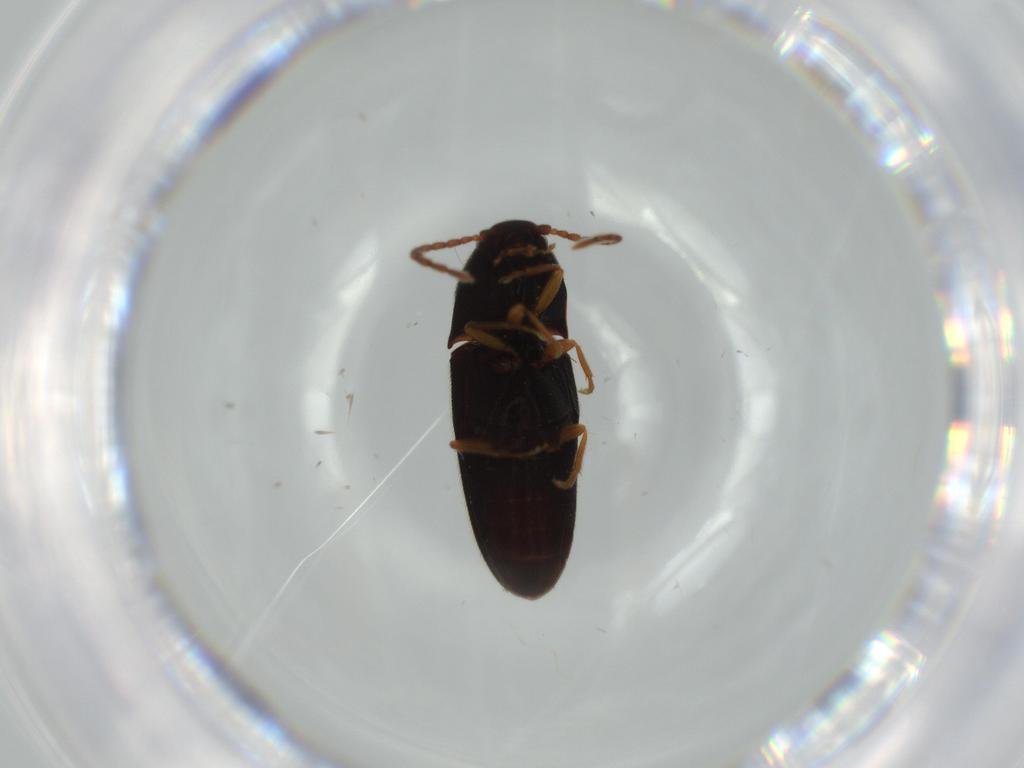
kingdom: Animalia
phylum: Arthropoda
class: Insecta
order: Coleoptera
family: Elateridae
